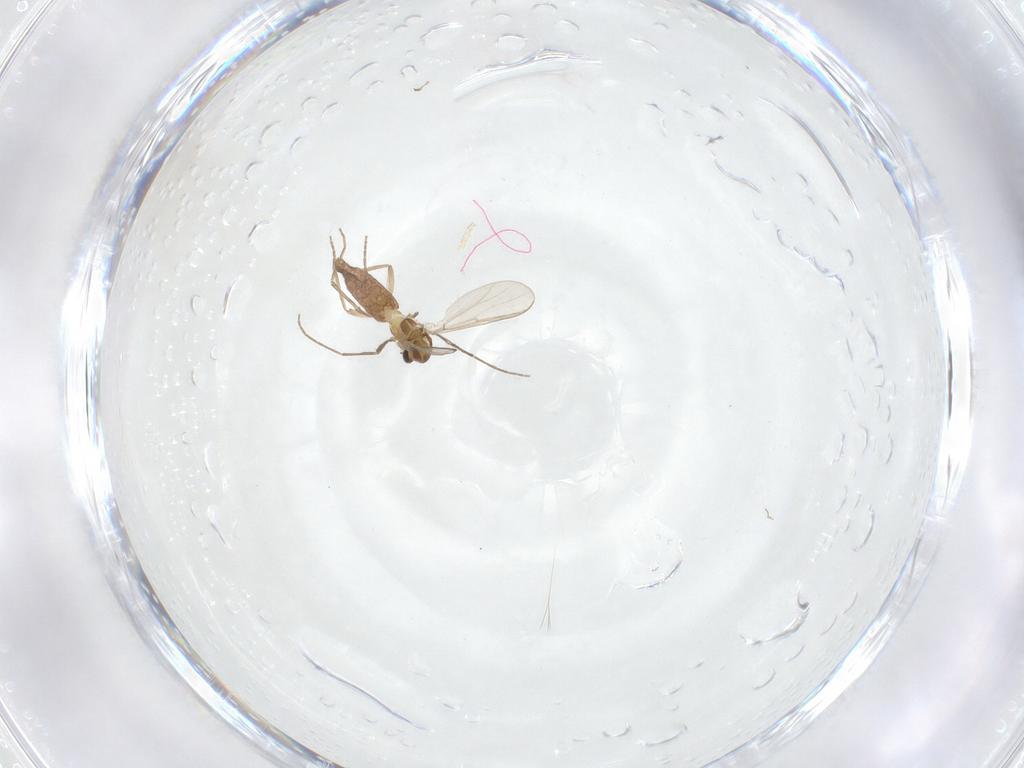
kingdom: Animalia
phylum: Arthropoda
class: Insecta
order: Diptera
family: Chironomidae
